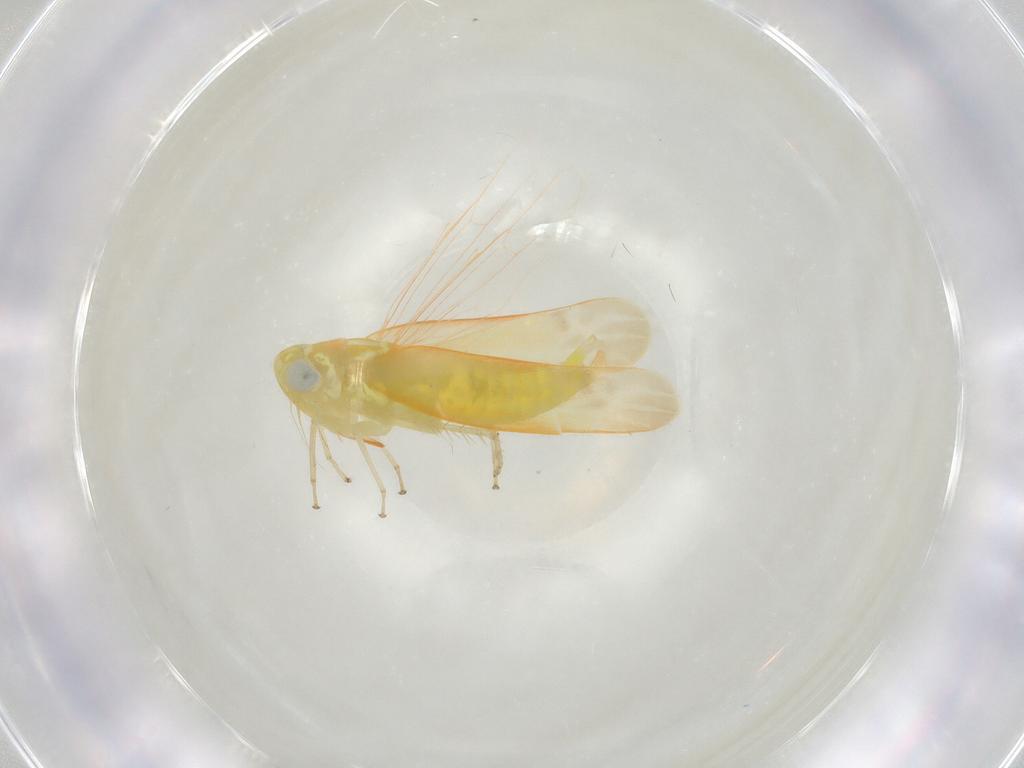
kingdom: Animalia
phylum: Arthropoda
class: Insecta
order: Hemiptera
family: Cicadellidae
